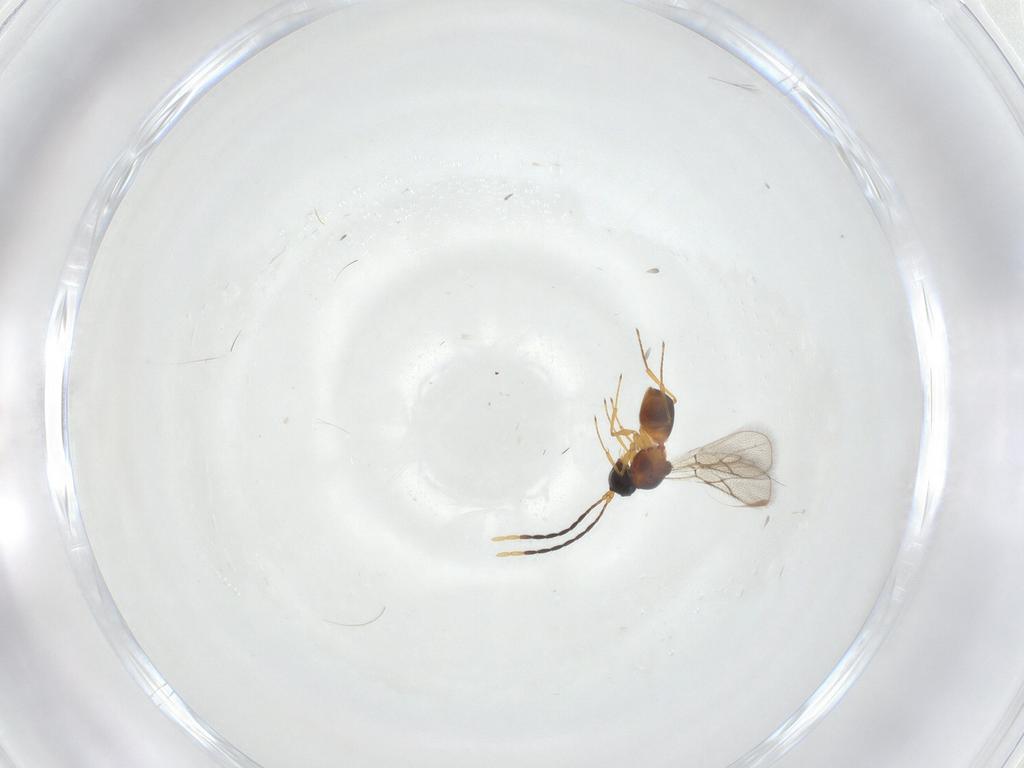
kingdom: Animalia
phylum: Arthropoda
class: Insecta
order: Hymenoptera
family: Figitidae
